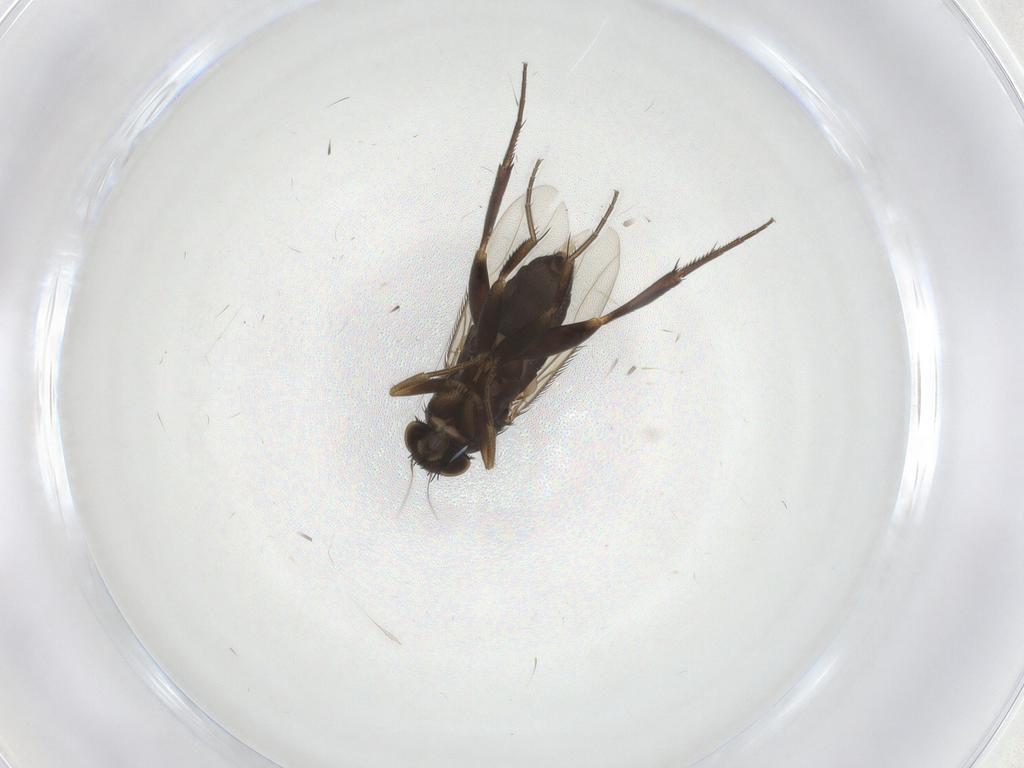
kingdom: Animalia
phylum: Arthropoda
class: Insecta
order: Diptera
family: Phoridae
